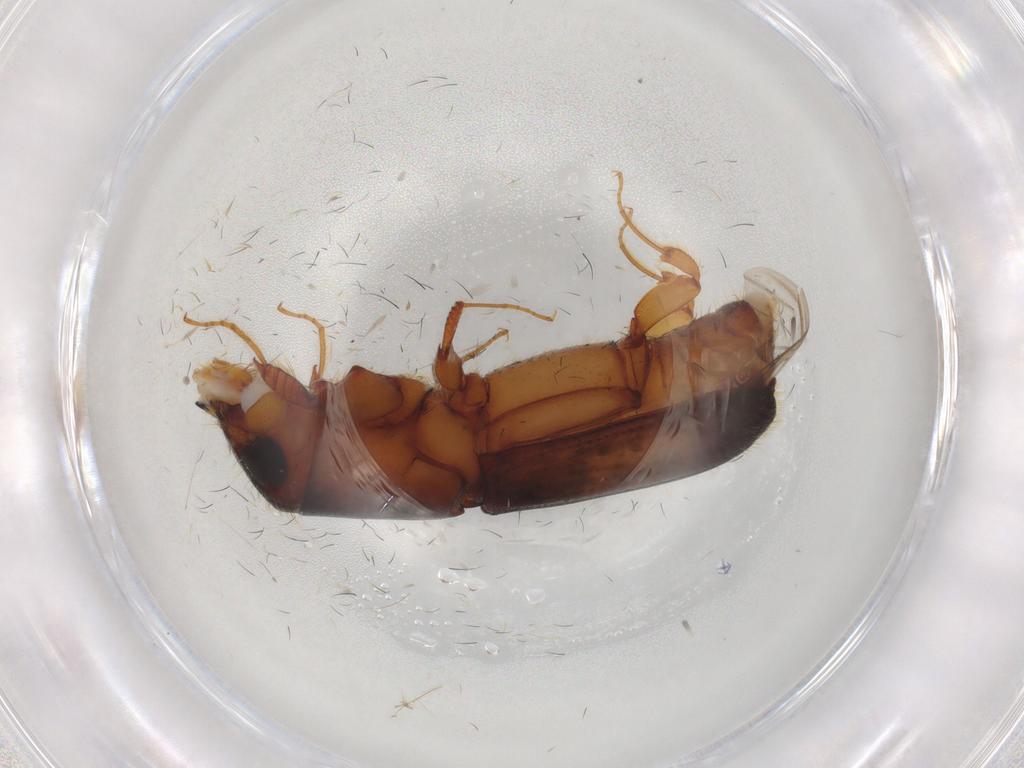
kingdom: Animalia
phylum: Arthropoda
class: Insecta
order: Coleoptera
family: Curculionidae
